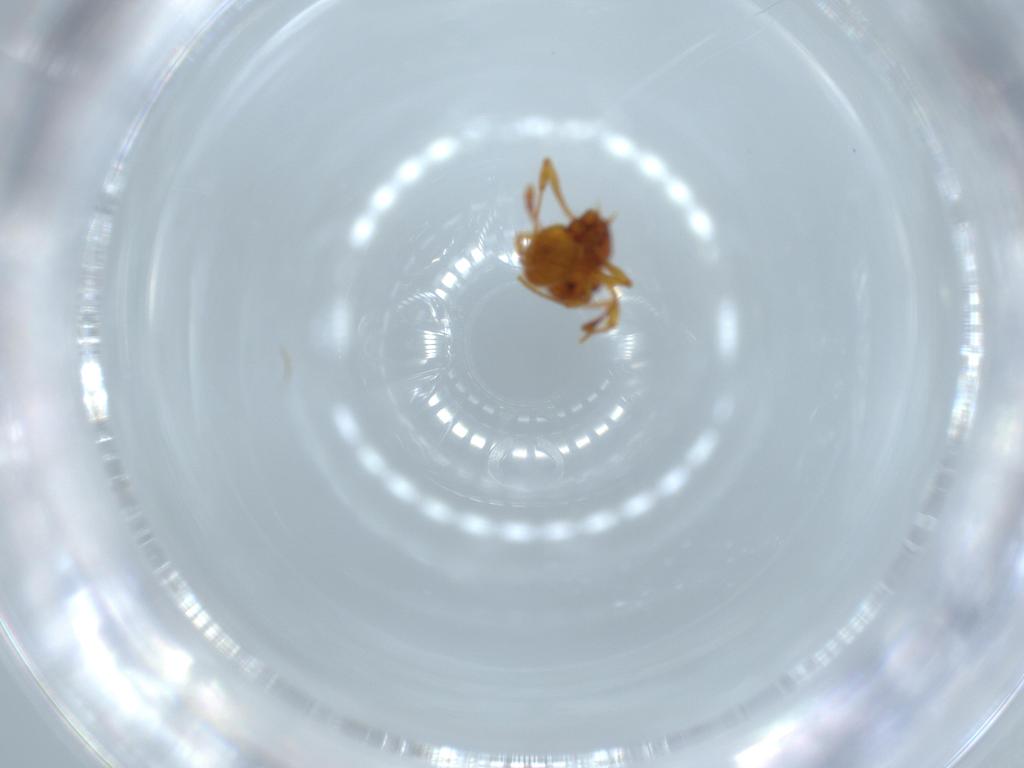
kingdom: Animalia
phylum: Arthropoda
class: Insecta
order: Hymenoptera
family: Formicidae
